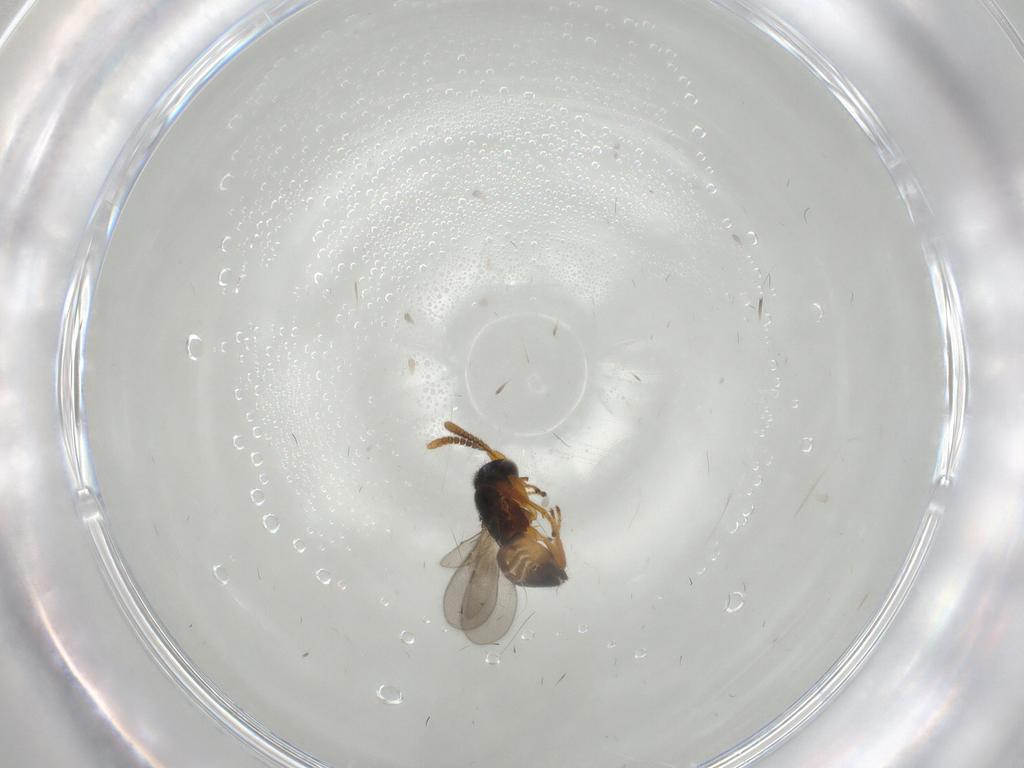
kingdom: Animalia
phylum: Arthropoda
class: Insecta
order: Hymenoptera
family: Encyrtidae
